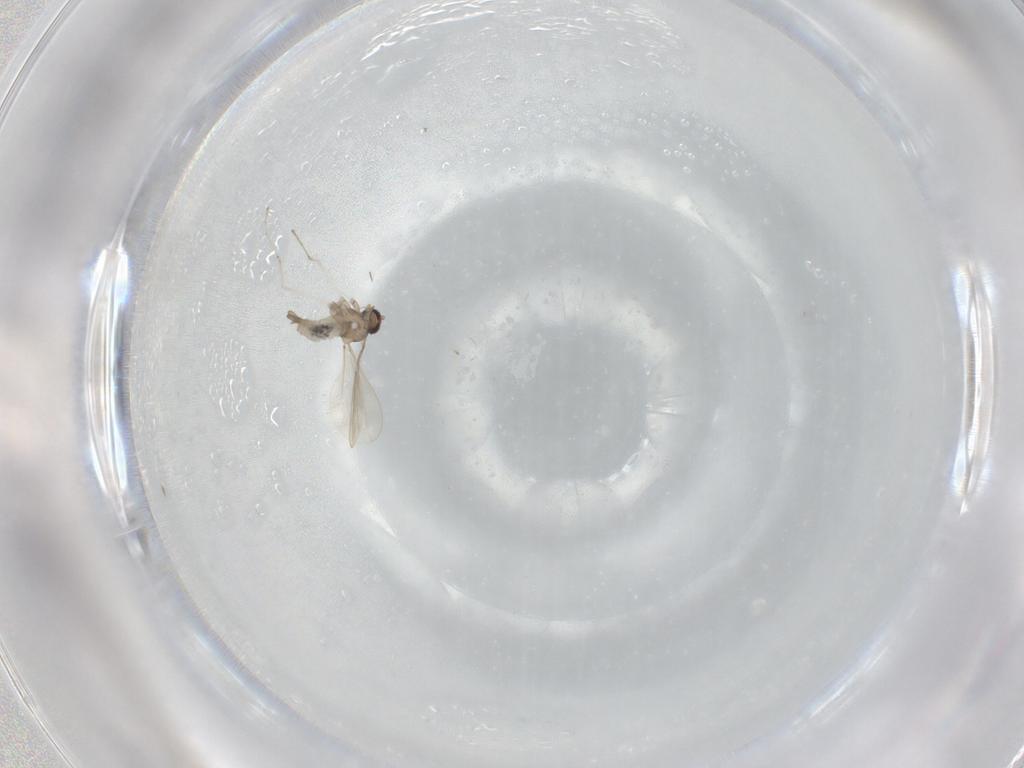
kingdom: Animalia
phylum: Arthropoda
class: Insecta
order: Diptera
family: Cecidomyiidae
